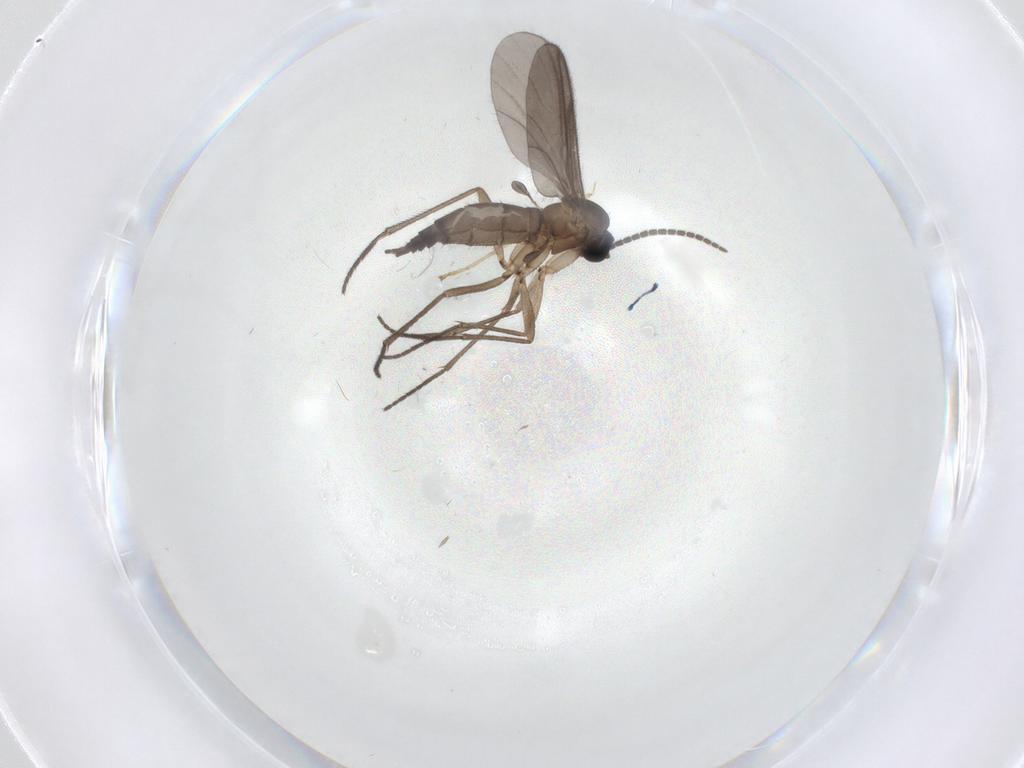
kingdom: Animalia
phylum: Arthropoda
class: Insecta
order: Diptera
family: Sciaridae
